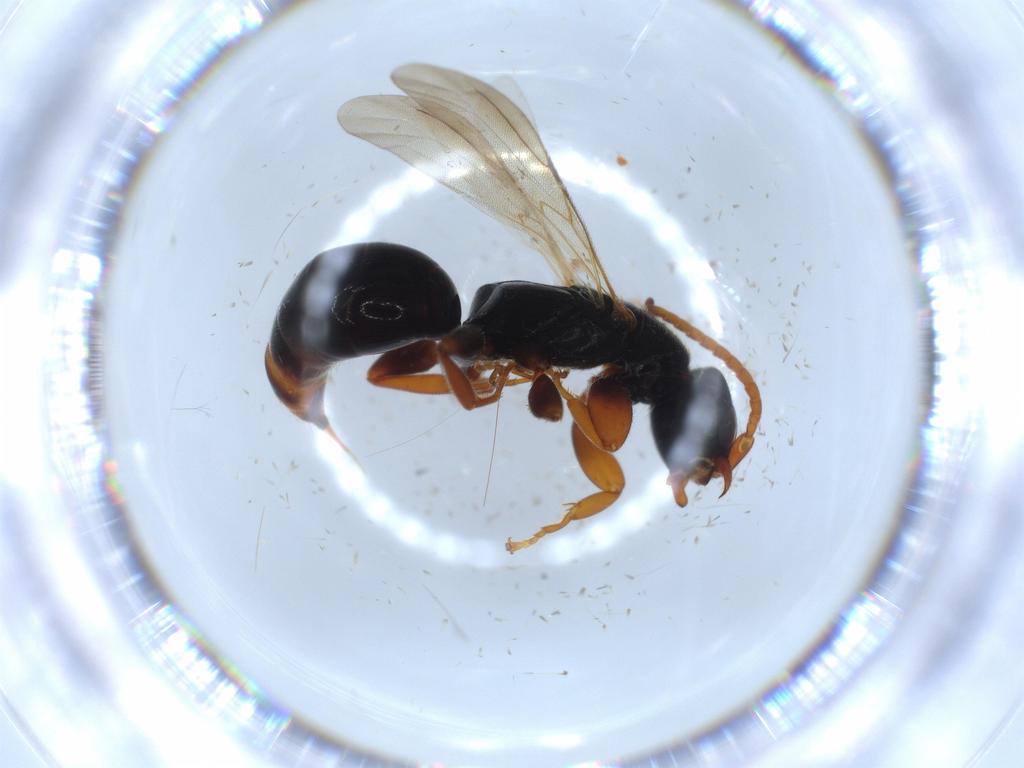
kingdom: Animalia
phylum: Arthropoda
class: Insecta
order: Hymenoptera
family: Bethylidae
